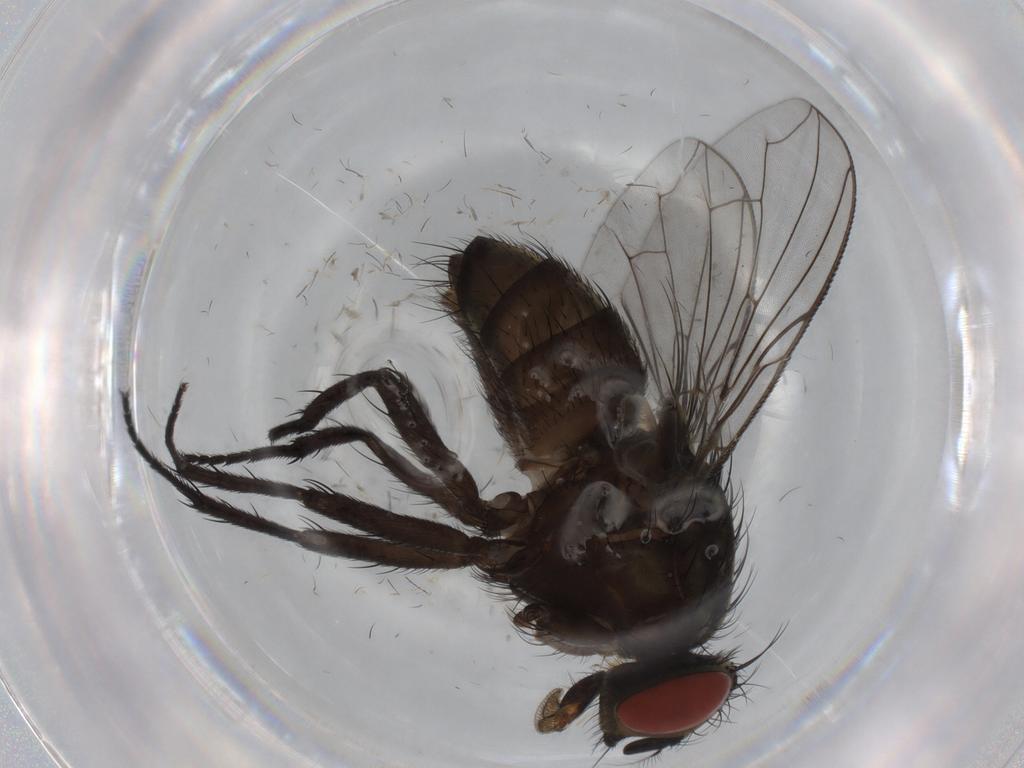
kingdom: Animalia
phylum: Arthropoda
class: Insecta
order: Diptera
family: Sarcophagidae
